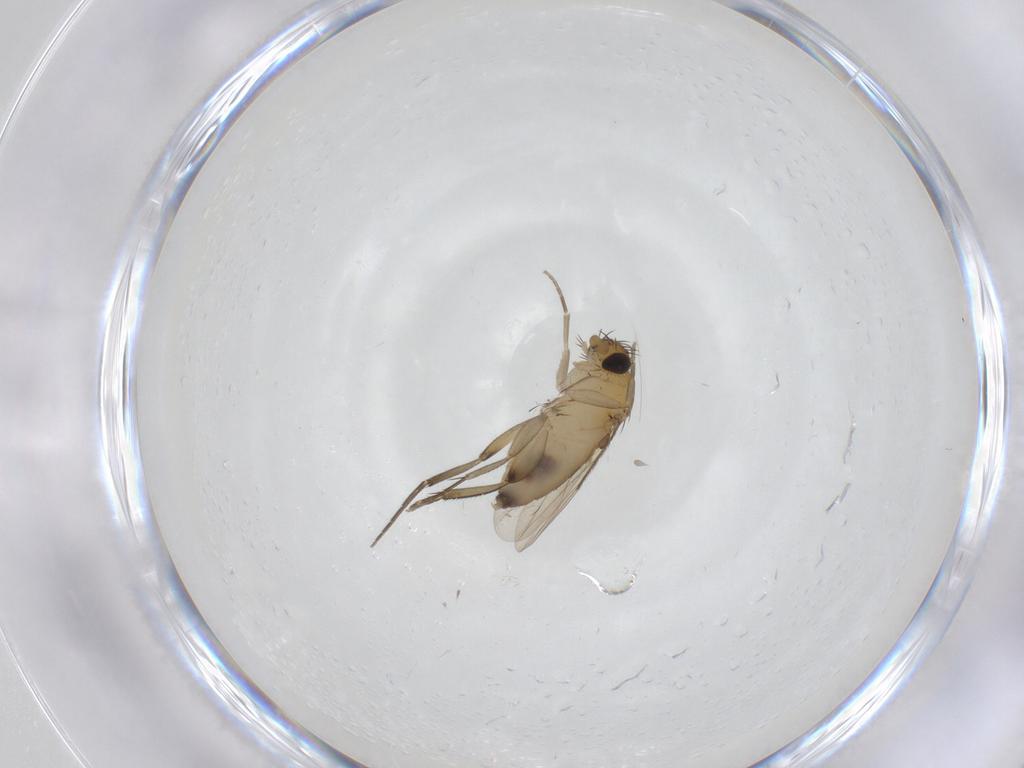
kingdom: Animalia
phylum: Arthropoda
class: Insecta
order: Diptera
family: Phoridae
